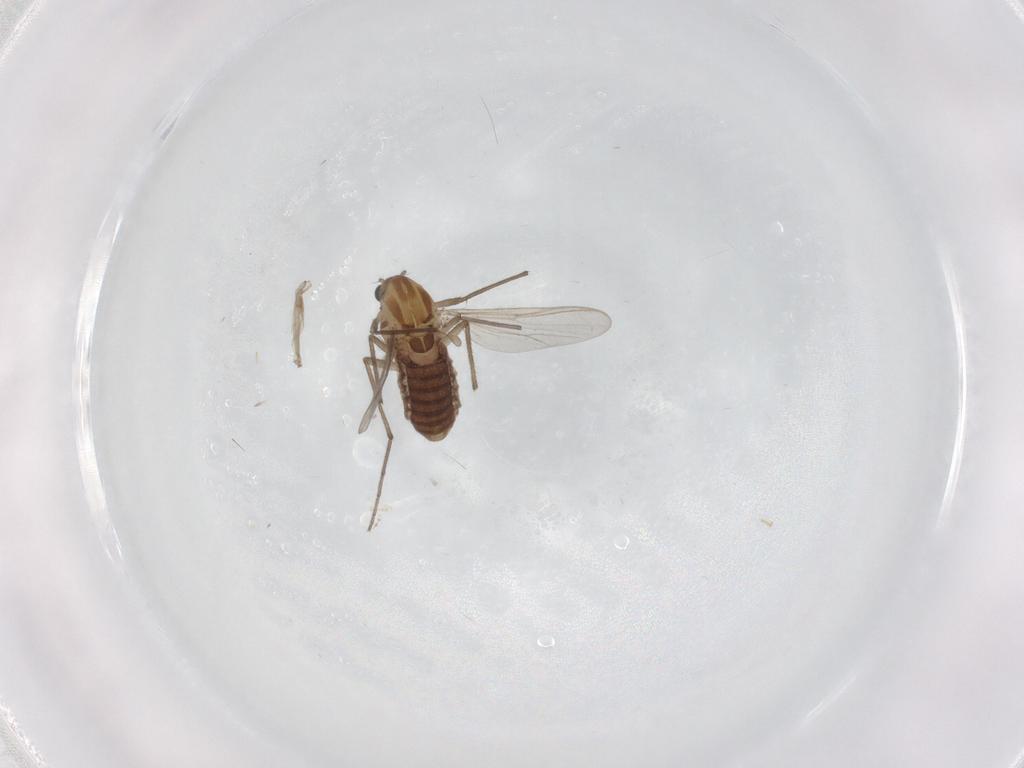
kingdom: Animalia
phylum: Arthropoda
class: Insecta
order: Diptera
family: Chironomidae
